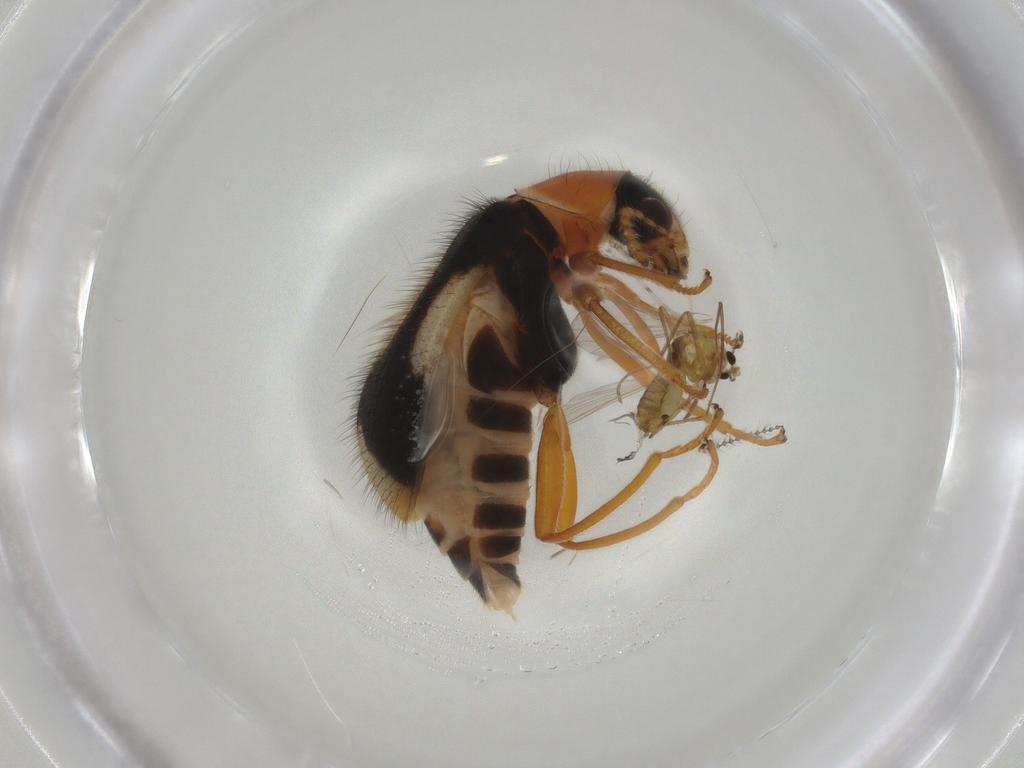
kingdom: Animalia
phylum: Arthropoda
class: Insecta
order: Diptera
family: Chironomidae
